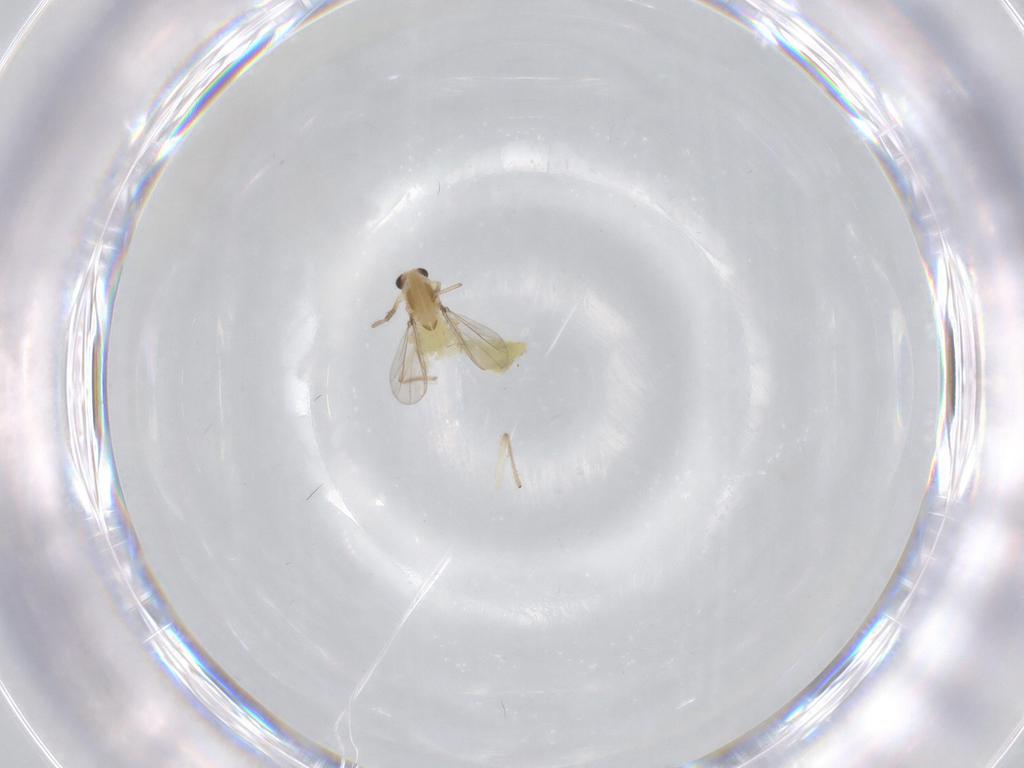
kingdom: Animalia
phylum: Arthropoda
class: Insecta
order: Diptera
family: Chironomidae
